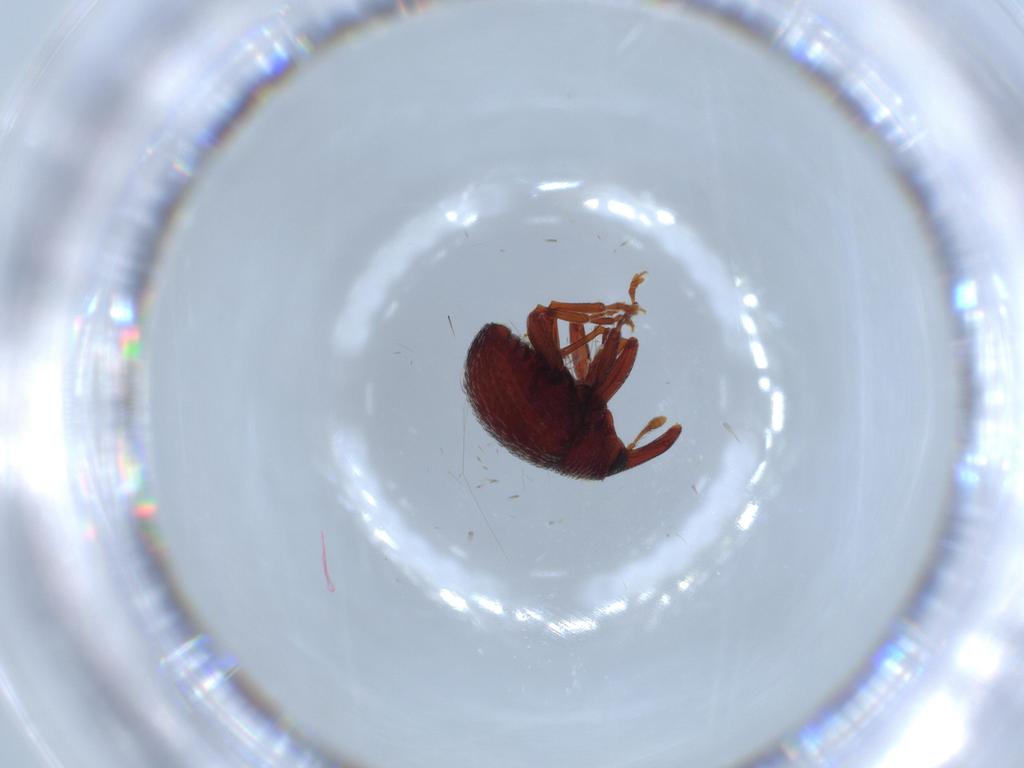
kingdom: Animalia
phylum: Arthropoda
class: Insecta
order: Coleoptera
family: Curculionidae
